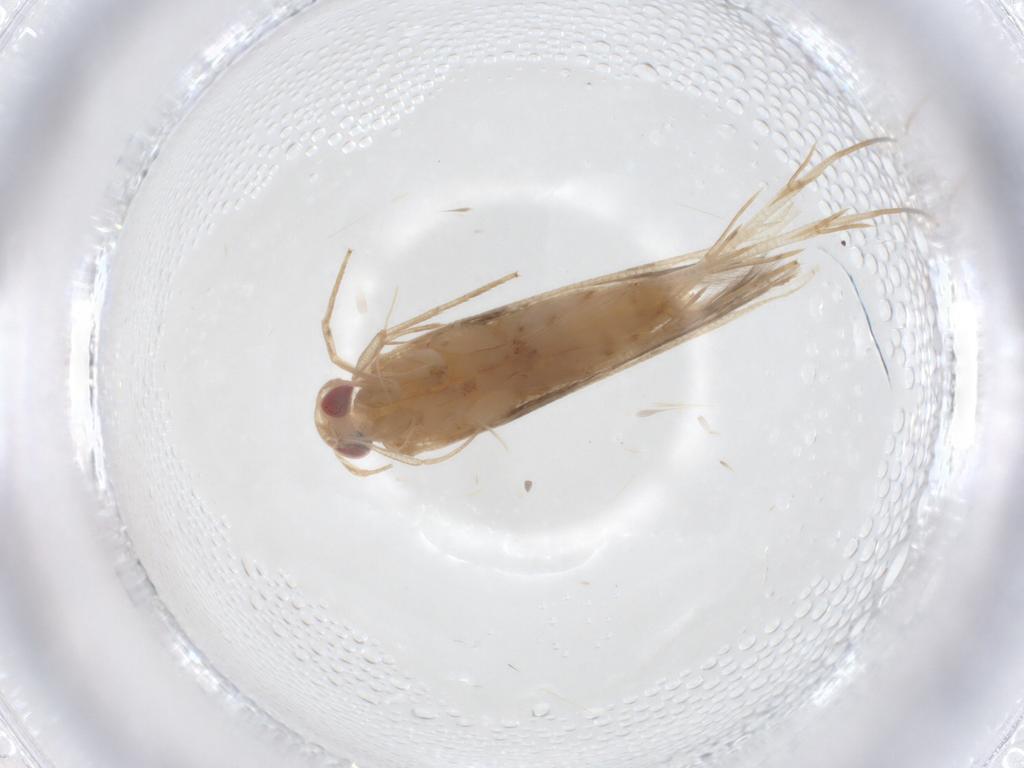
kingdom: Animalia
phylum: Arthropoda
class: Insecta
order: Lepidoptera
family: Cosmopterigidae
